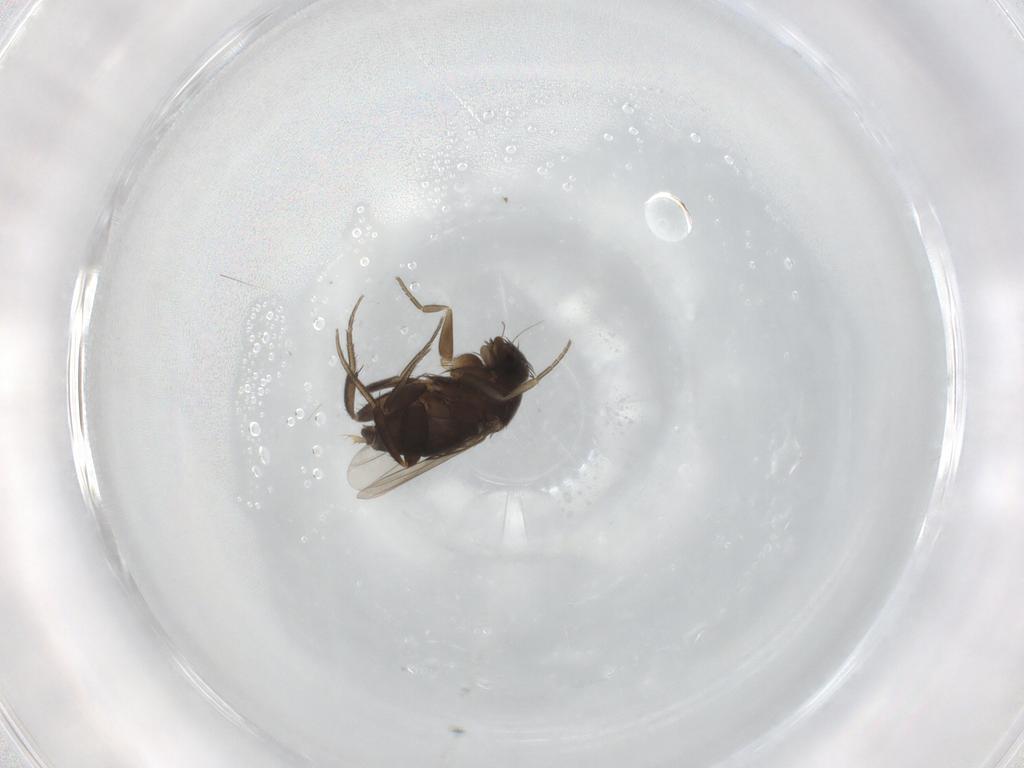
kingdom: Animalia
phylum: Arthropoda
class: Insecta
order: Diptera
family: Phoridae
